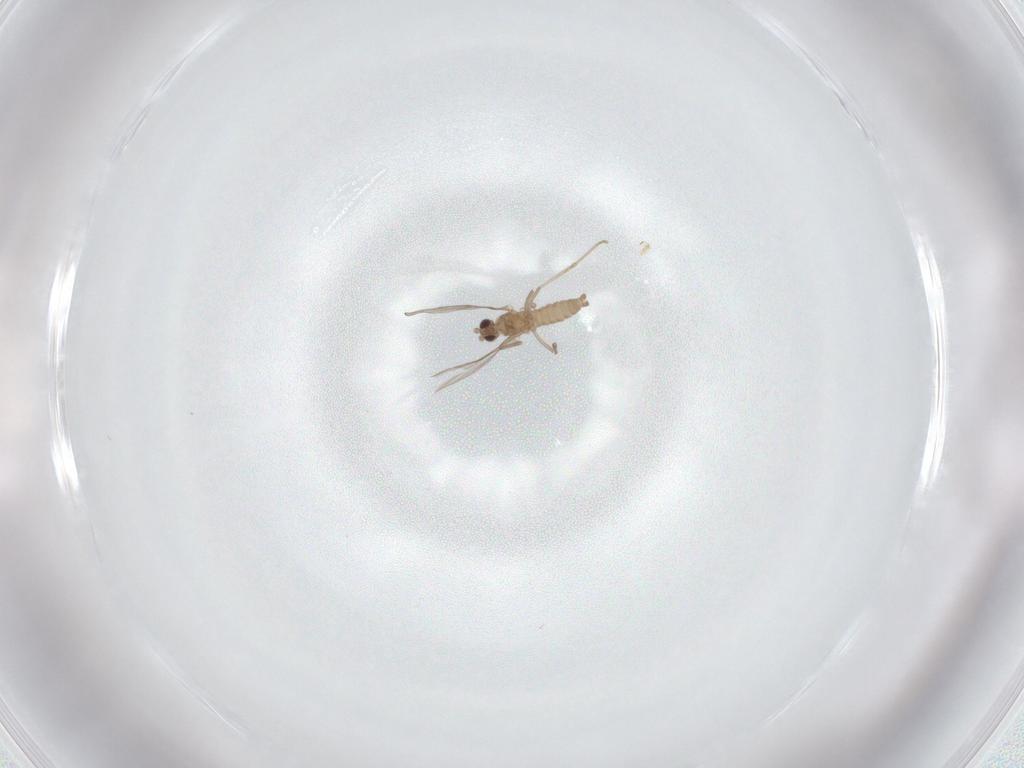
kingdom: Animalia
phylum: Arthropoda
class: Insecta
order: Diptera
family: Cecidomyiidae
